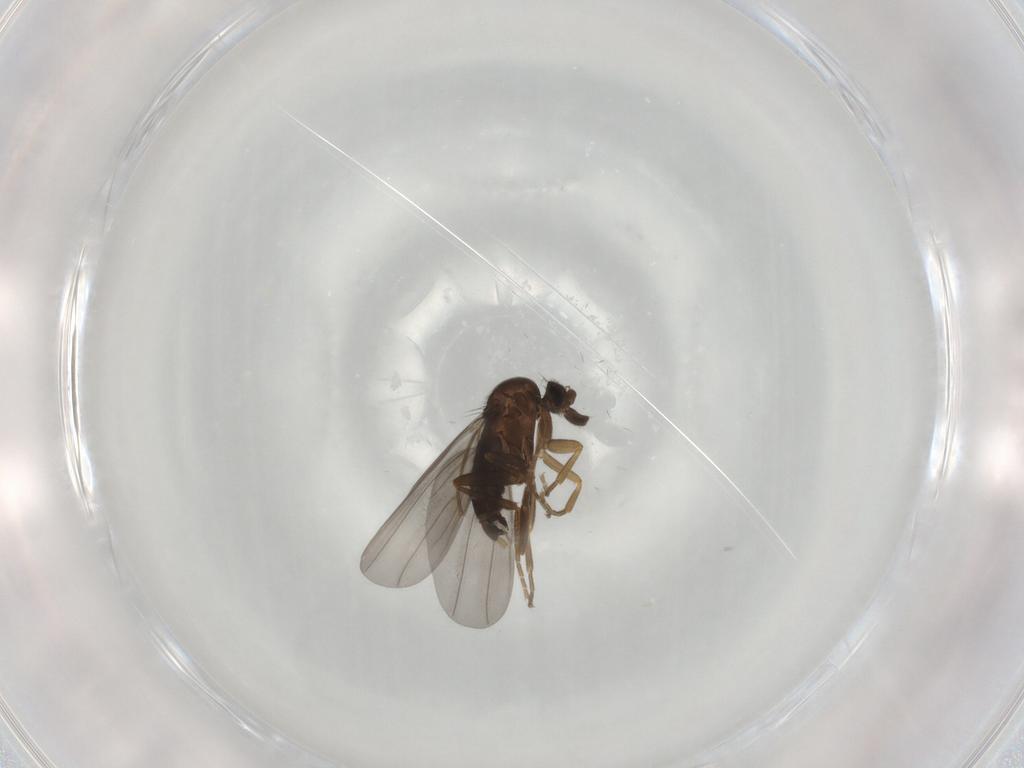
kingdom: Animalia
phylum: Arthropoda
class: Insecta
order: Diptera
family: Phoridae
